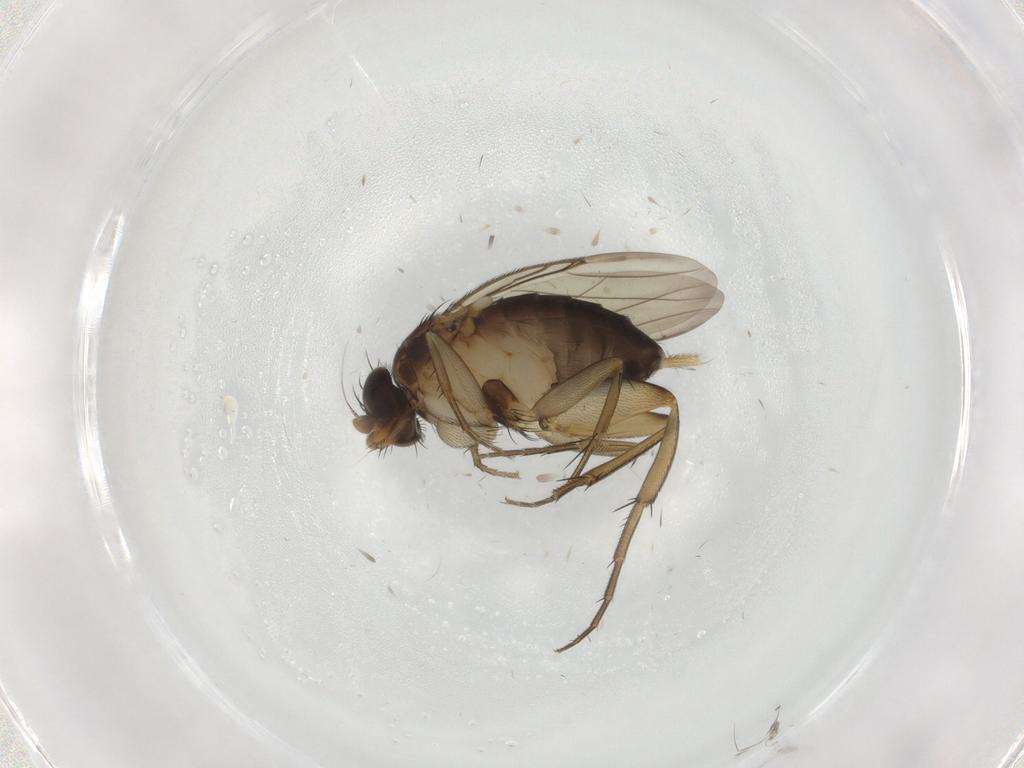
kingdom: Animalia
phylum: Arthropoda
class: Insecta
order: Diptera
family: Phoridae
